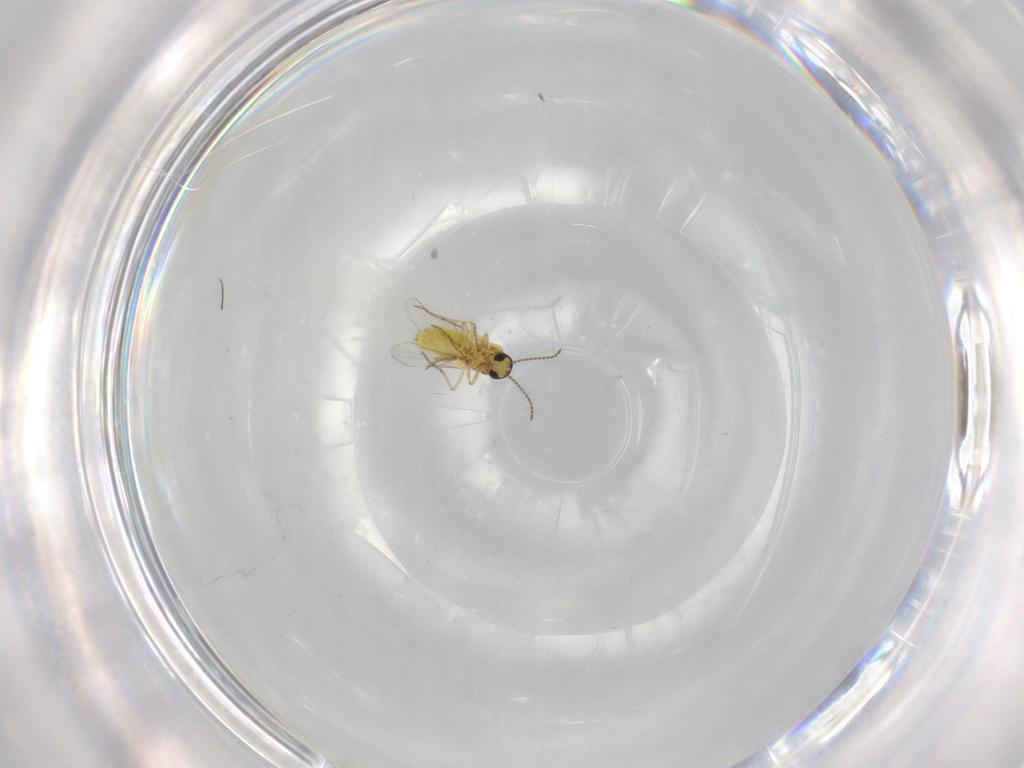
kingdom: Animalia
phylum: Arthropoda
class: Insecta
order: Diptera
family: Ceratopogonidae
